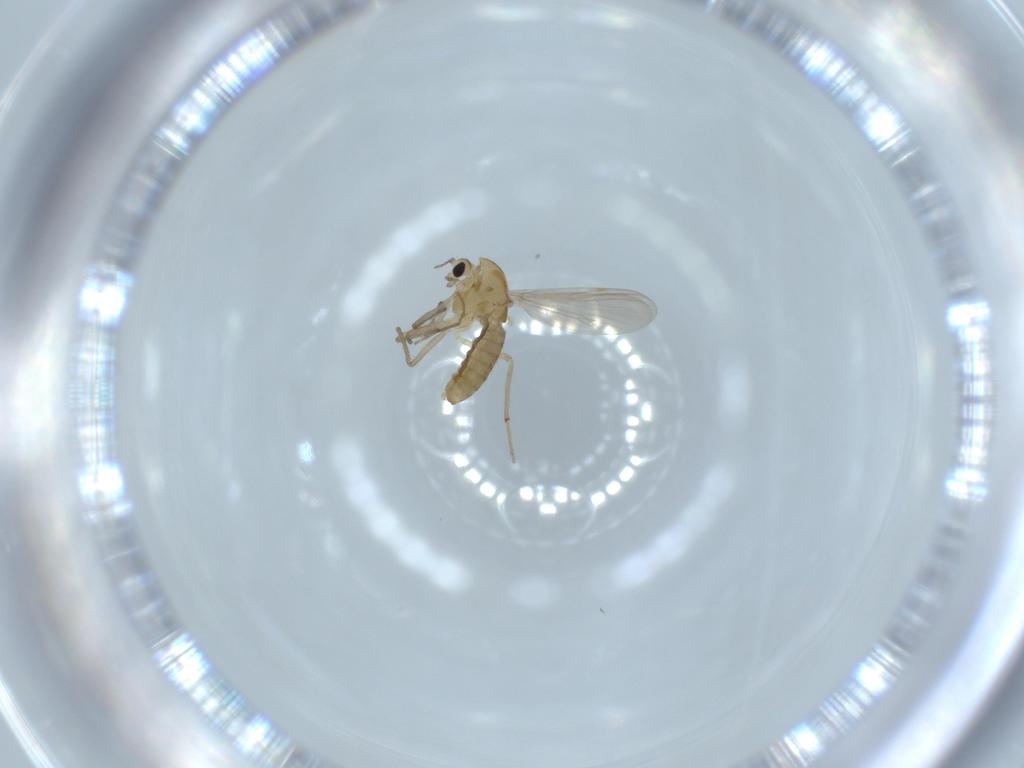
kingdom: Animalia
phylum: Arthropoda
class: Insecta
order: Diptera
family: Chironomidae
